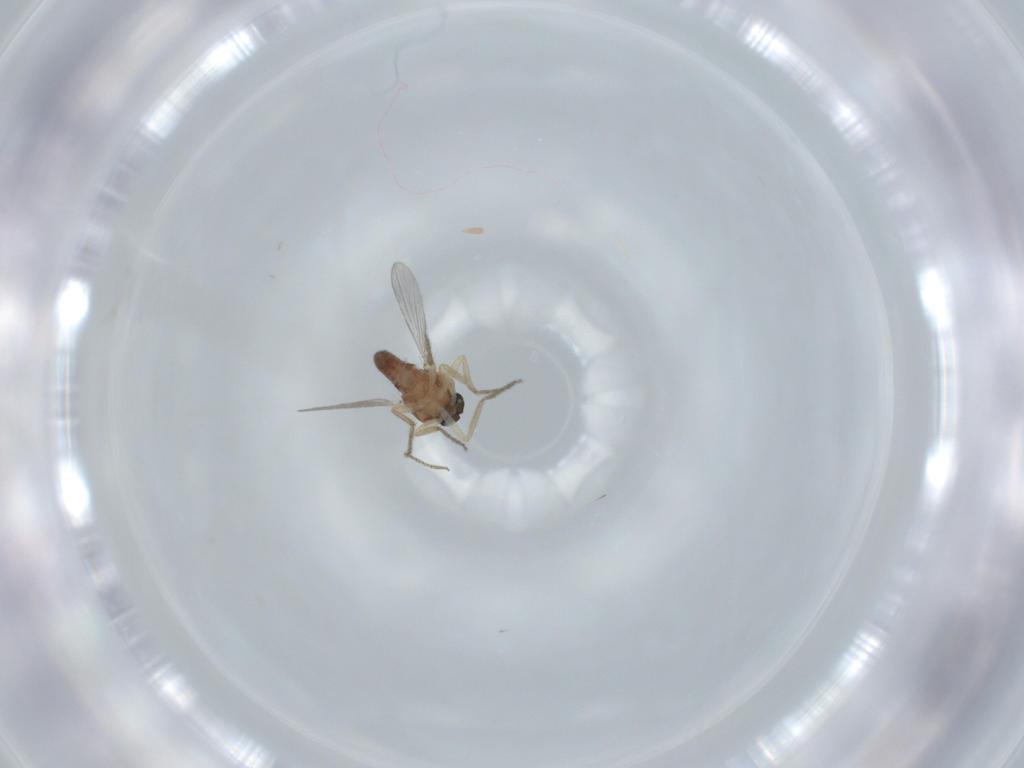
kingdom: Animalia
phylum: Arthropoda
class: Insecta
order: Diptera
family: Ceratopogonidae
